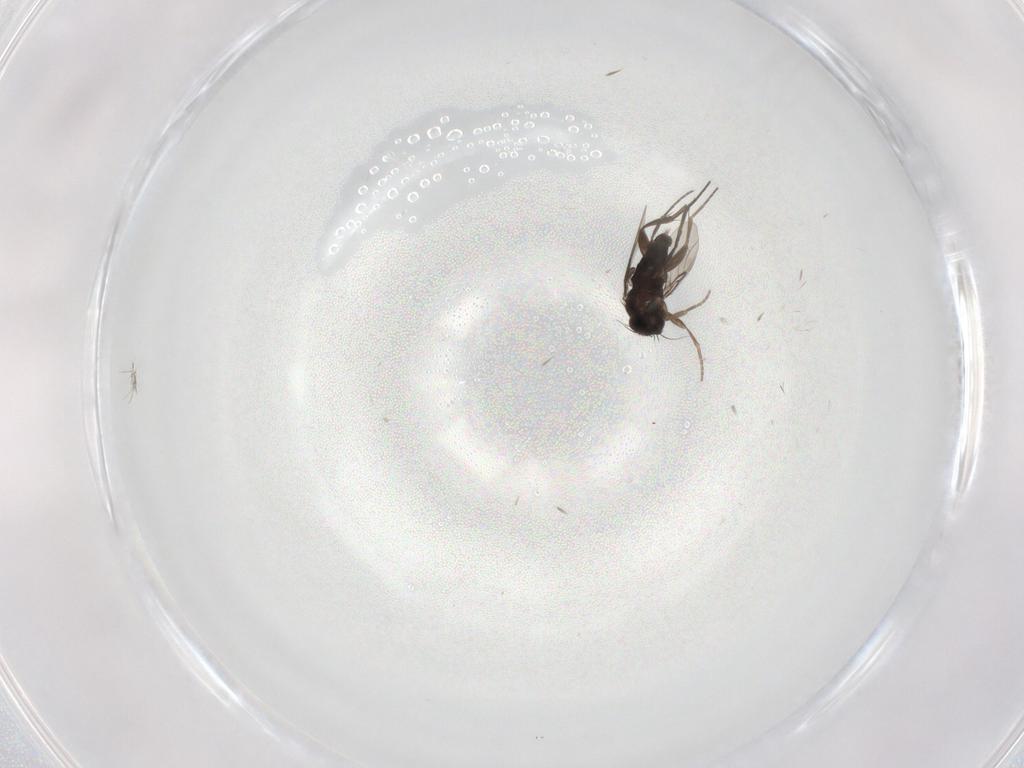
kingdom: Animalia
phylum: Arthropoda
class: Insecta
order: Diptera
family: Phoridae
